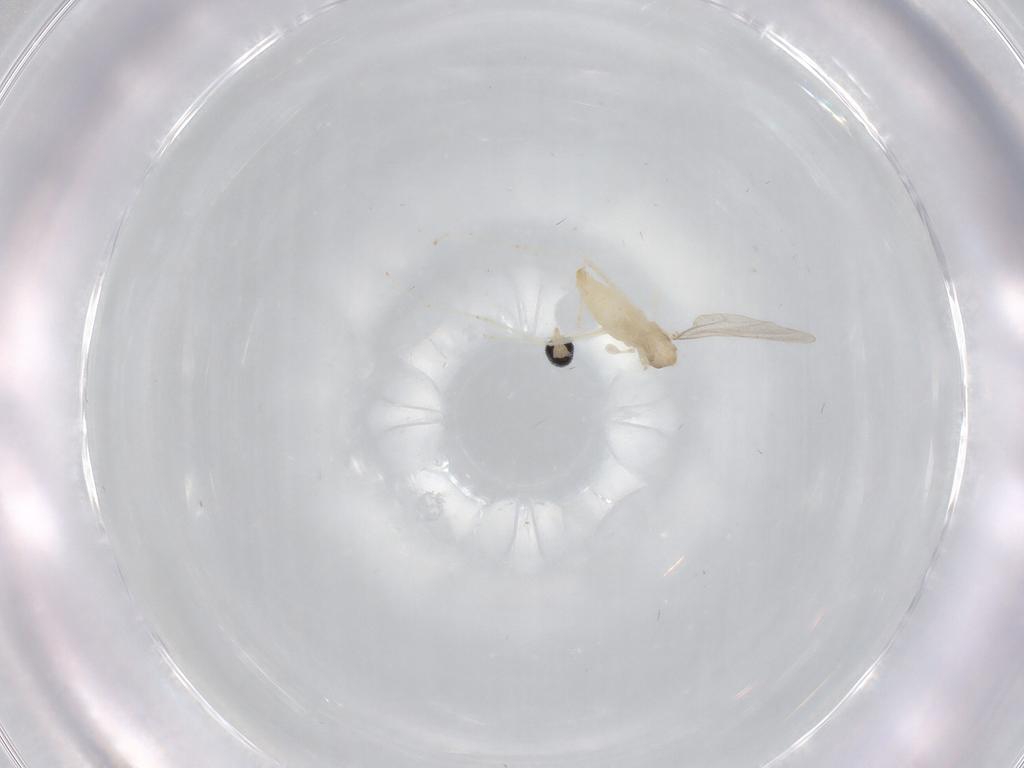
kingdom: Animalia
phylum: Arthropoda
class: Insecta
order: Diptera
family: Cecidomyiidae
